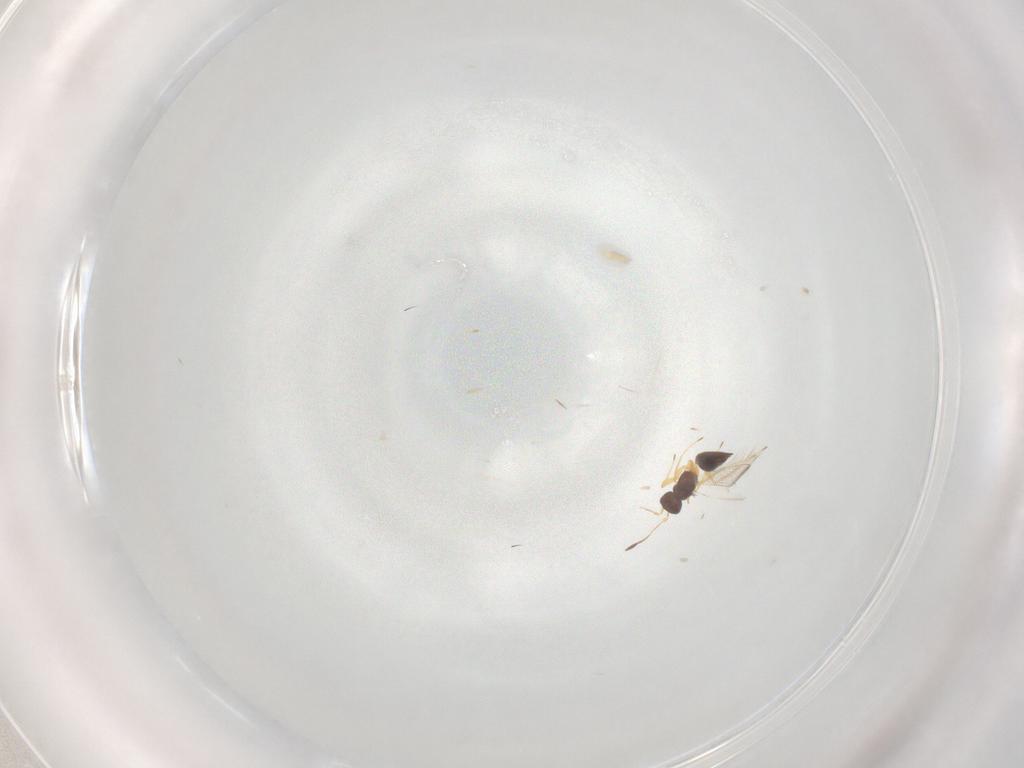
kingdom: Animalia
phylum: Arthropoda
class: Insecta
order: Hymenoptera
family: Mymaridae
